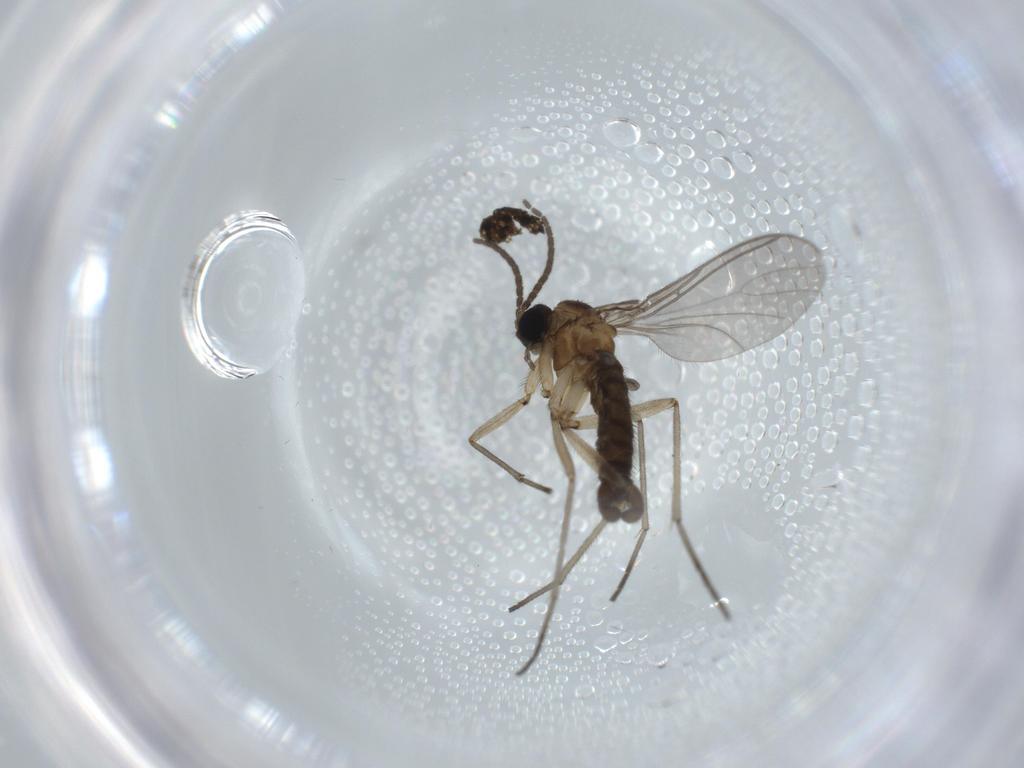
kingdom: Animalia
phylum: Arthropoda
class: Insecta
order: Diptera
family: Sciaridae
